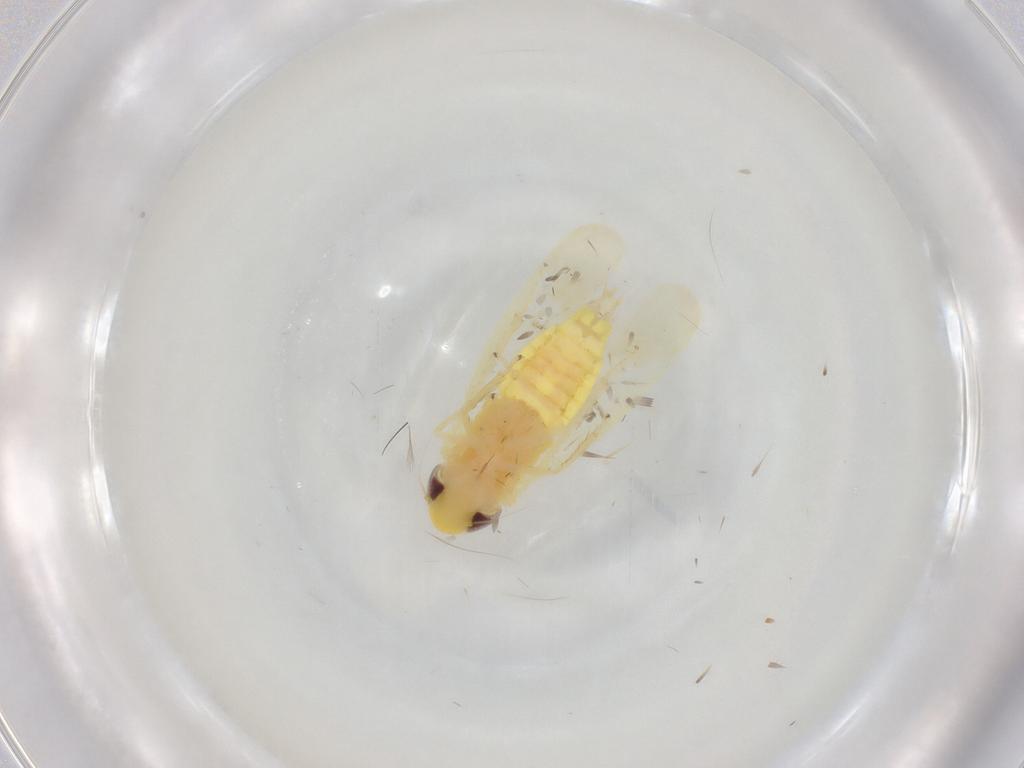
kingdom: Animalia
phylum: Arthropoda
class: Insecta
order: Hemiptera
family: Cicadellidae
